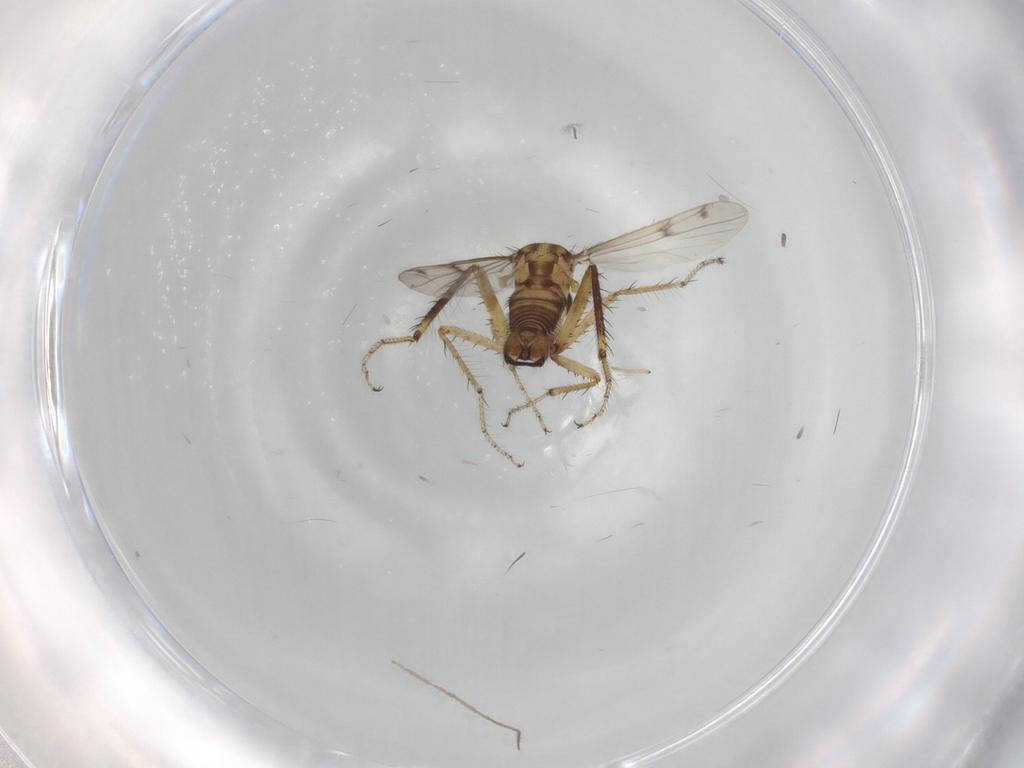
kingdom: Animalia
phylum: Arthropoda
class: Insecta
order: Diptera
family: Ceratopogonidae
